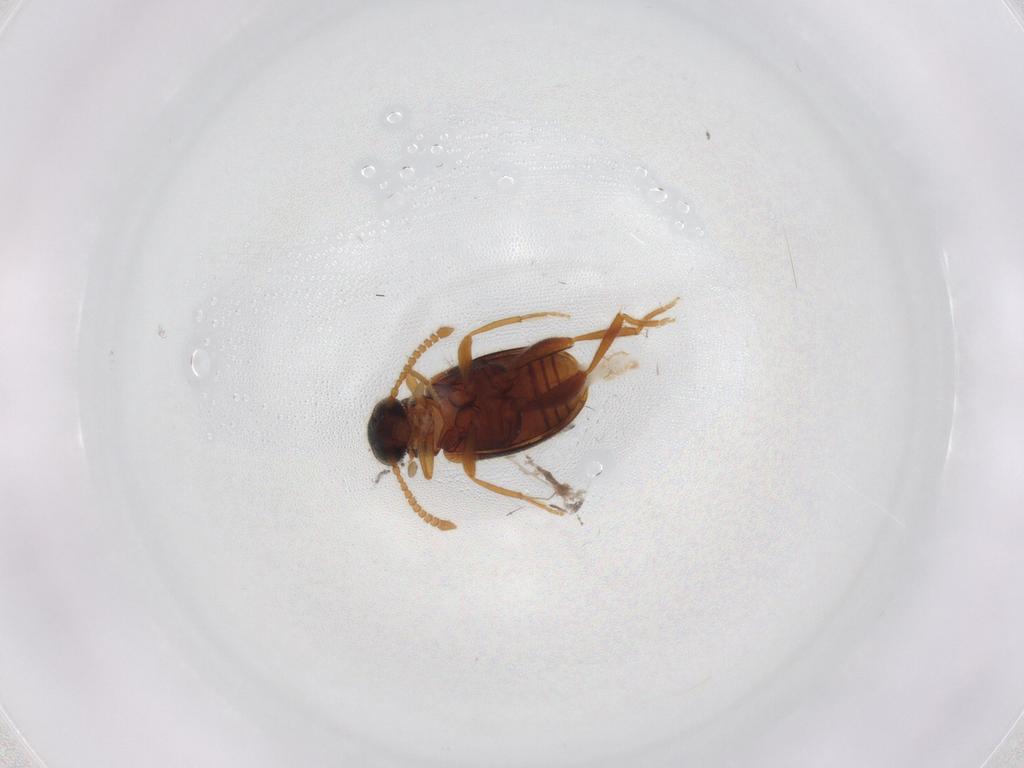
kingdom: Animalia
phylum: Arthropoda
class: Insecta
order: Coleoptera
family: Aderidae
